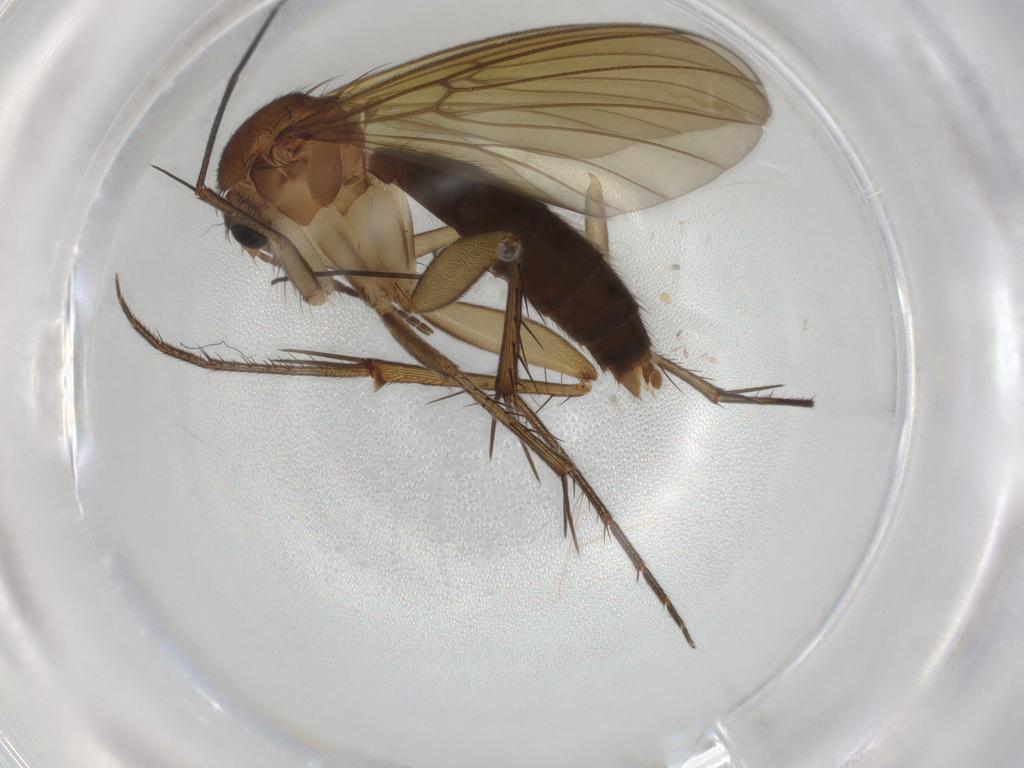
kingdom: Animalia
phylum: Arthropoda
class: Insecta
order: Diptera
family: Mycetophilidae
